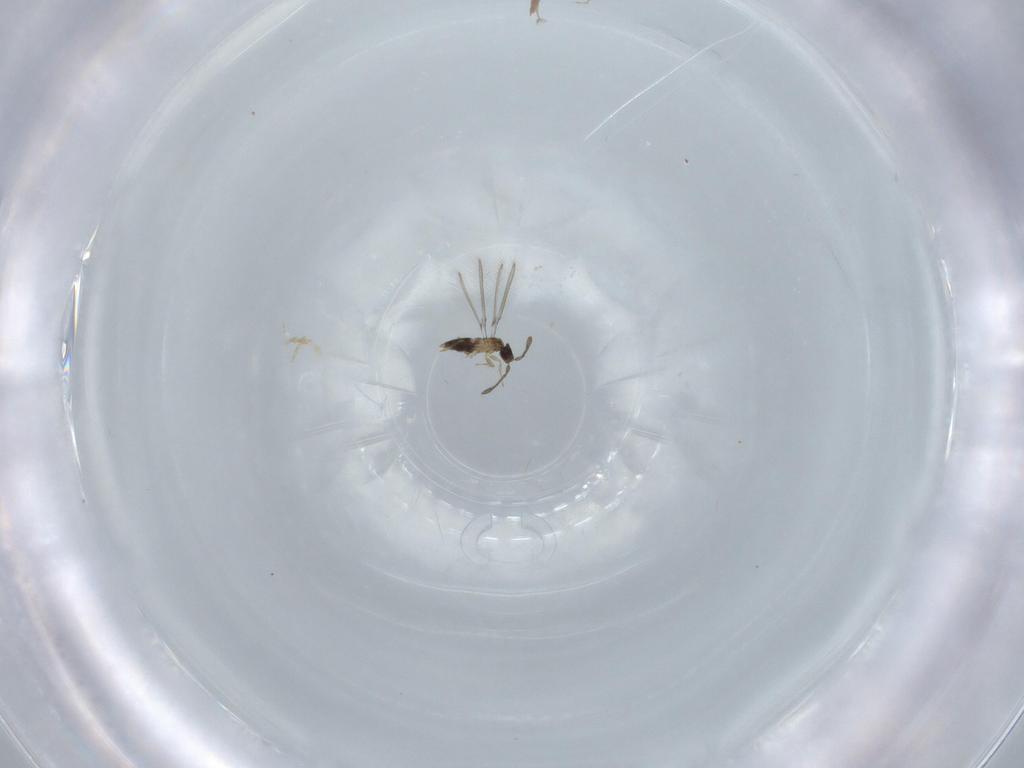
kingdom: Animalia
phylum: Arthropoda
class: Insecta
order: Hymenoptera
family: Mymaridae
